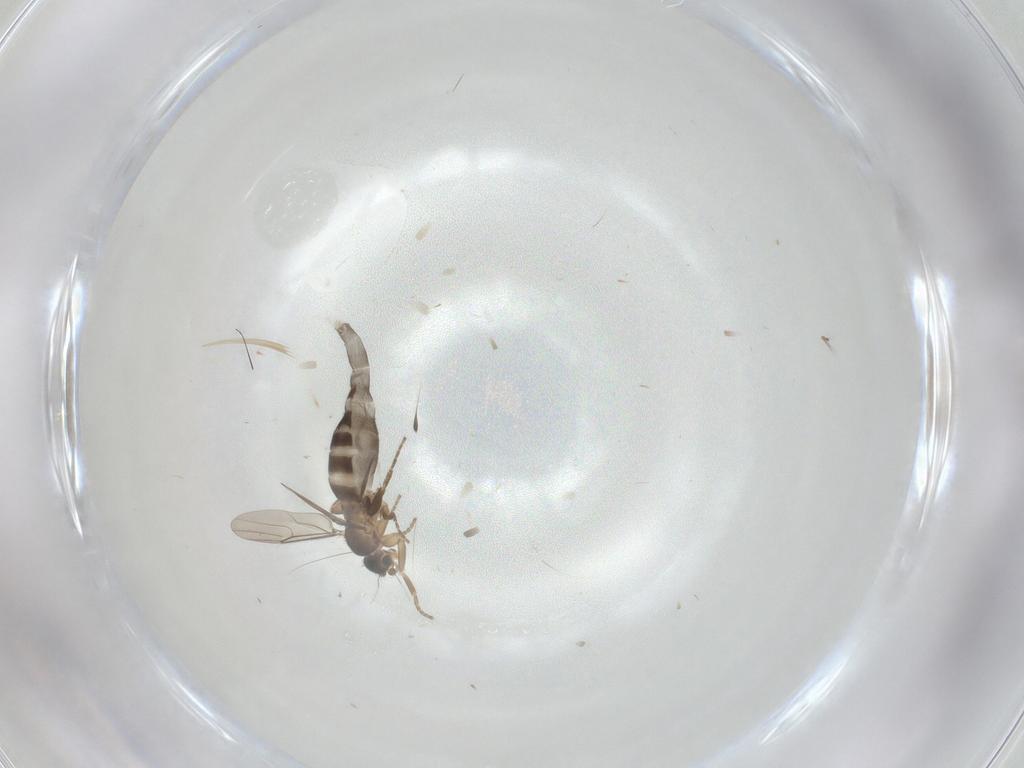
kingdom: Animalia
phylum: Arthropoda
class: Insecta
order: Diptera
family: Ceratopogonidae
